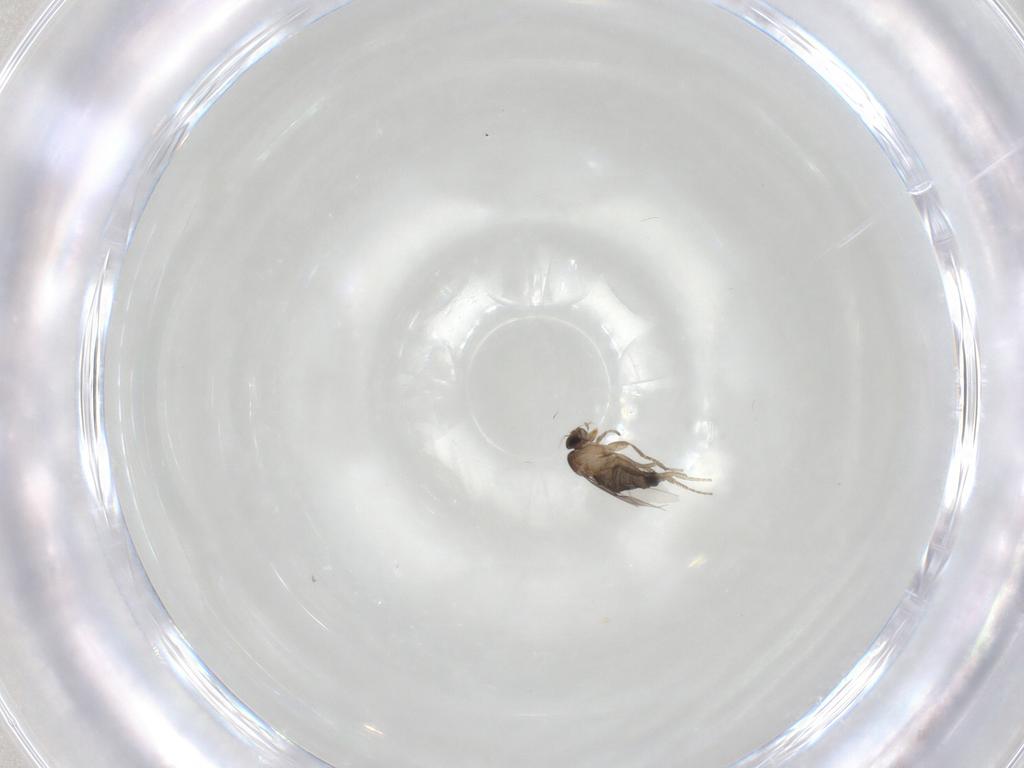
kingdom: Animalia
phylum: Arthropoda
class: Insecta
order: Diptera
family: Phoridae
